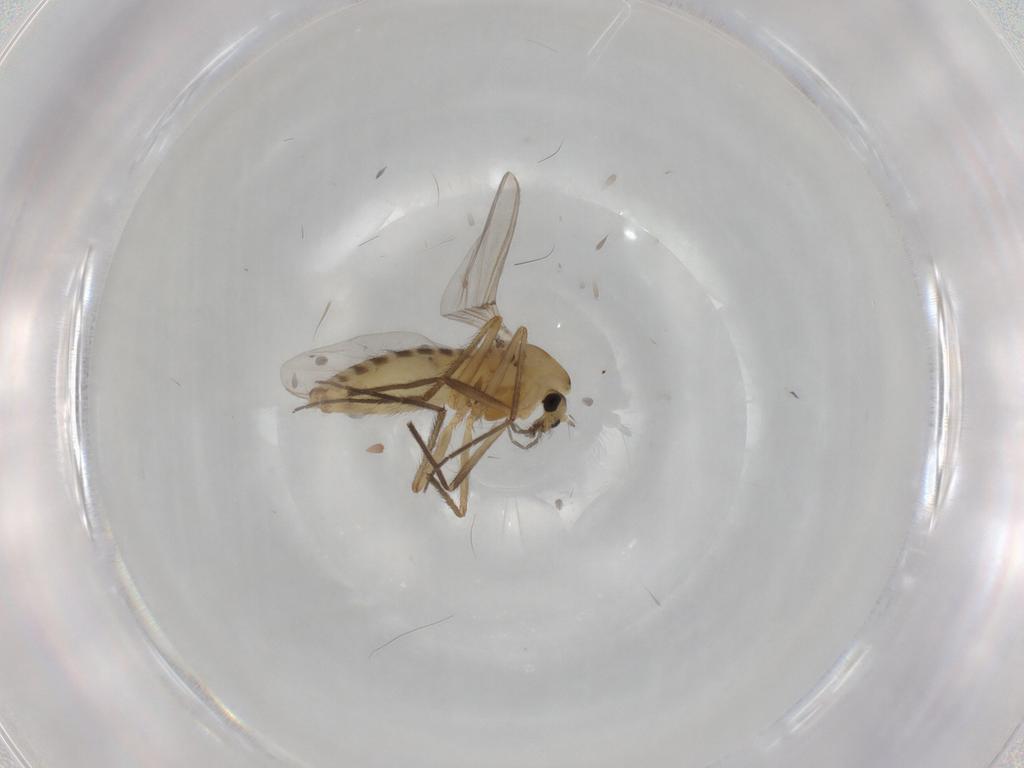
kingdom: Animalia
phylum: Arthropoda
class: Insecta
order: Diptera
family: Chironomidae
